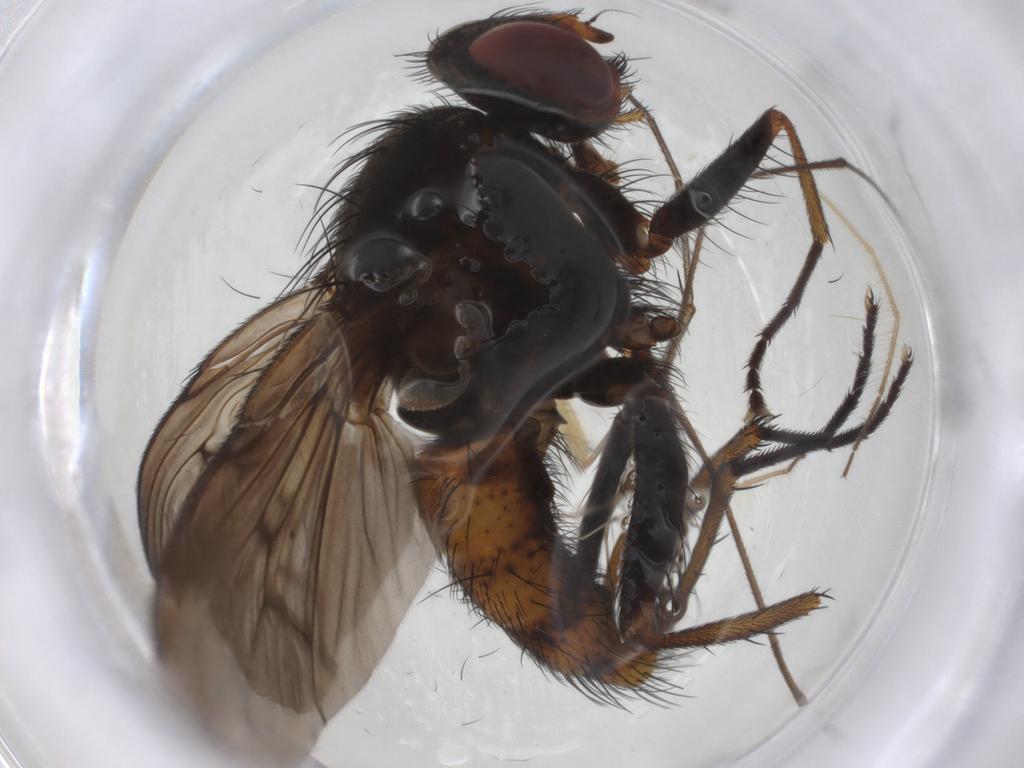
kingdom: Animalia
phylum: Arthropoda
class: Insecta
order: Diptera
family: Muscidae
